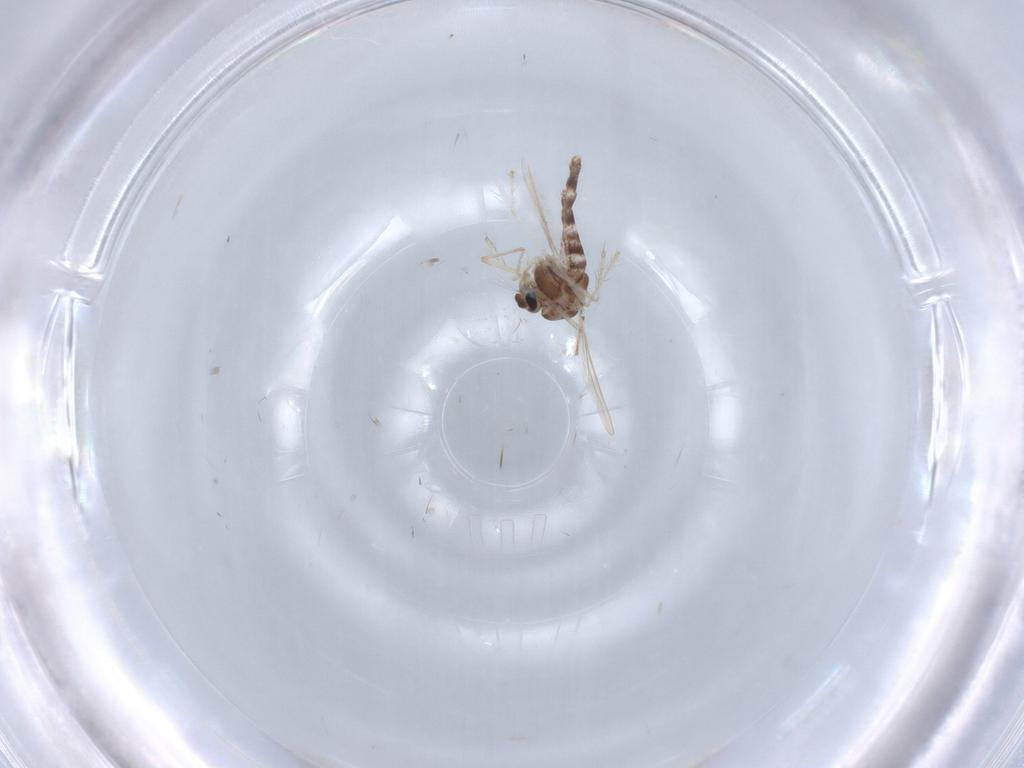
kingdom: Animalia
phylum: Arthropoda
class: Insecta
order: Diptera
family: Chironomidae
